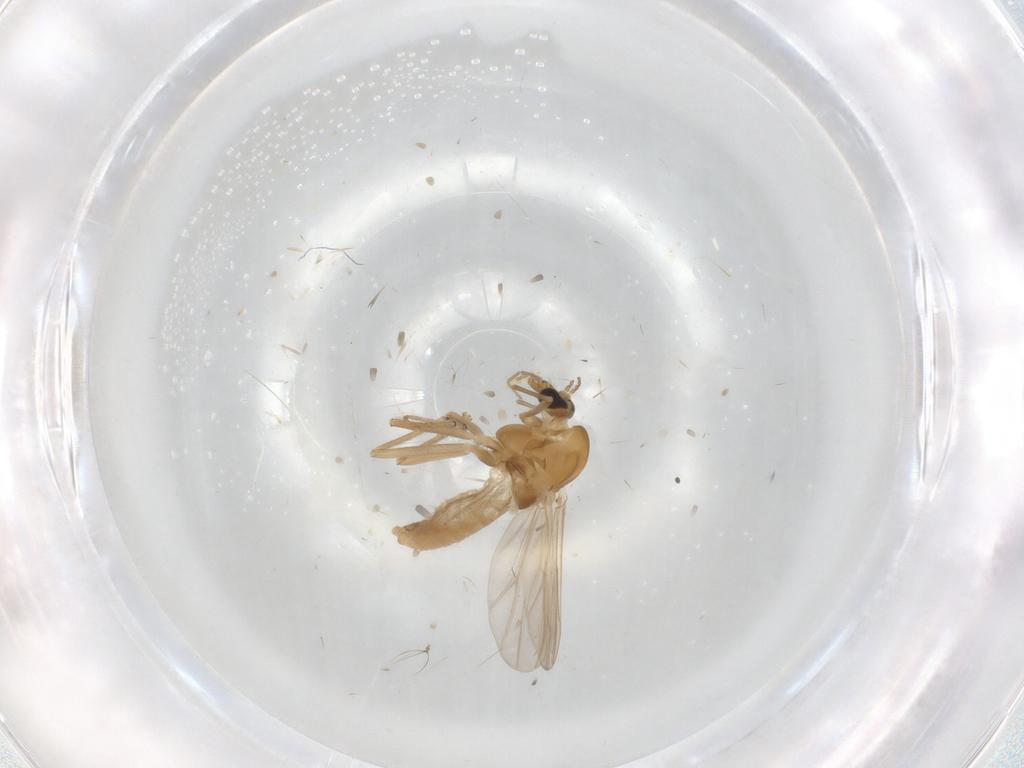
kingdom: Animalia
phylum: Arthropoda
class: Insecta
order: Diptera
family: Chironomidae
